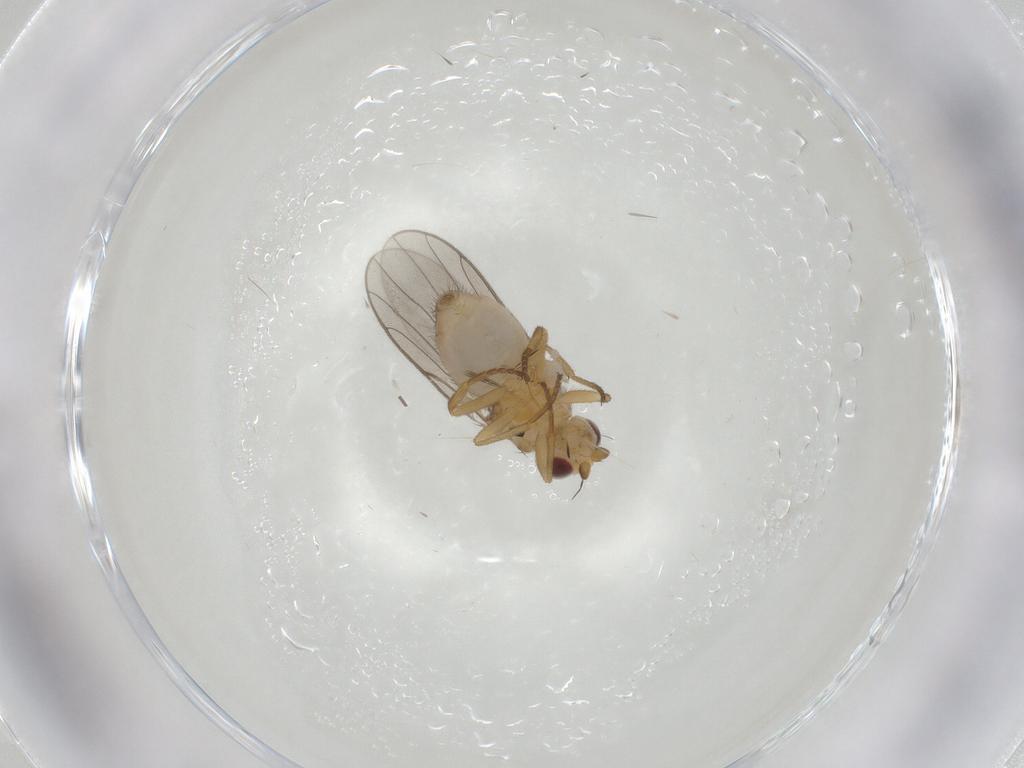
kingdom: Animalia
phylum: Arthropoda
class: Insecta
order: Diptera
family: Chloropidae
